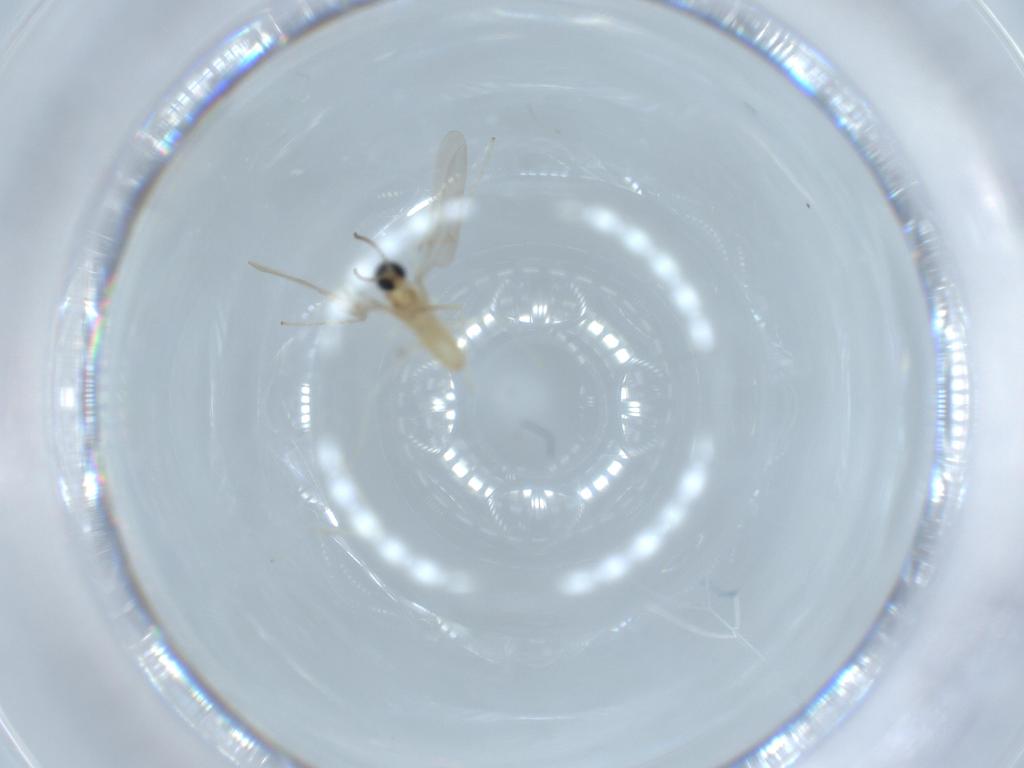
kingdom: Animalia
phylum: Arthropoda
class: Insecta
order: Diptera
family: Cecidomyiidae
